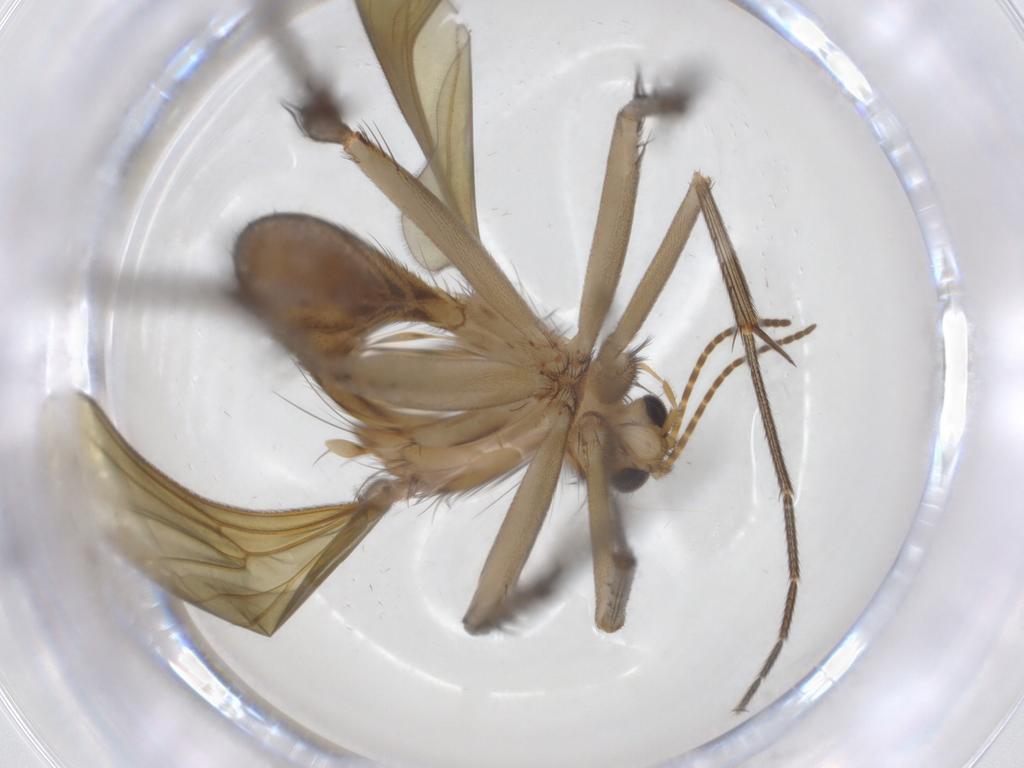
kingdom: Animalia
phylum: Arthropoda
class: Insecta
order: Diptera
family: Mycetophilidae
